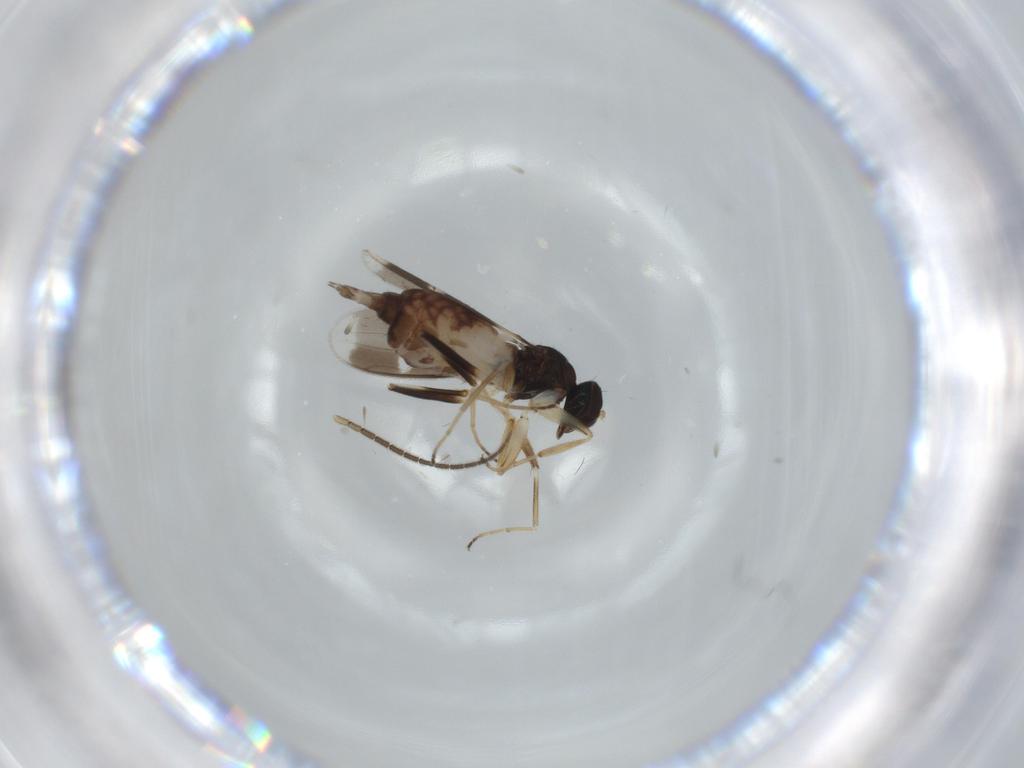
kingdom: Animalia
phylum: Arthropoda
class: Insecta
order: Diptera
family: Hybotidae
